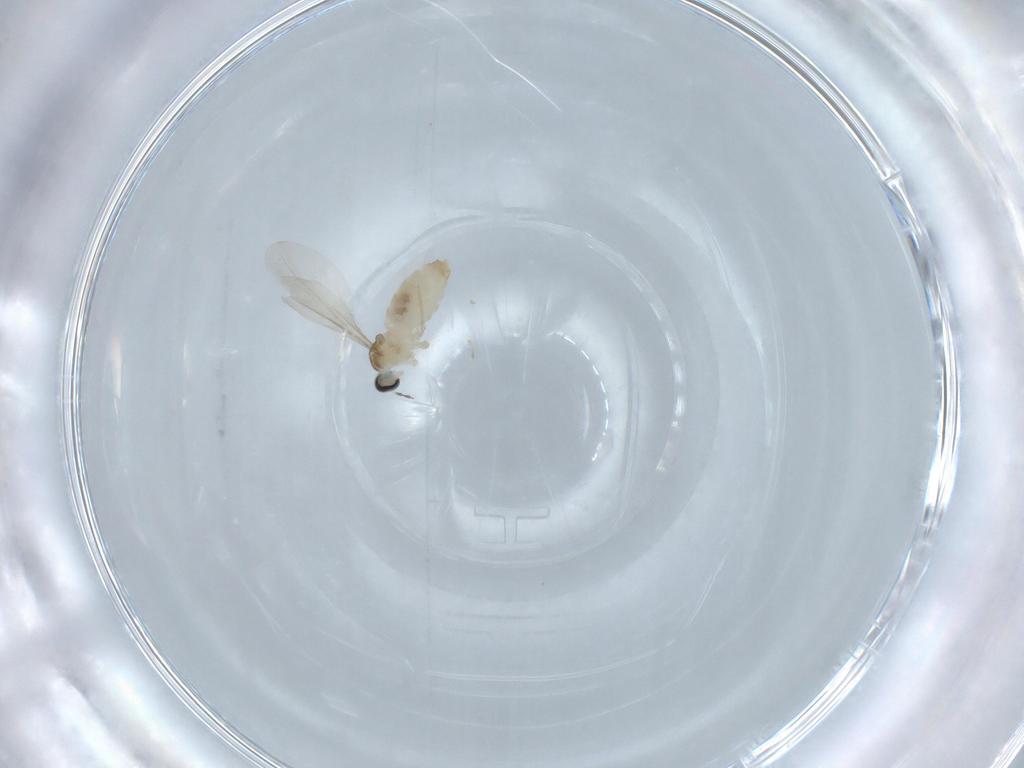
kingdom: Animalia
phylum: Arthropoda
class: Insecta
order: Diptera
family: Cecidomyiidae
